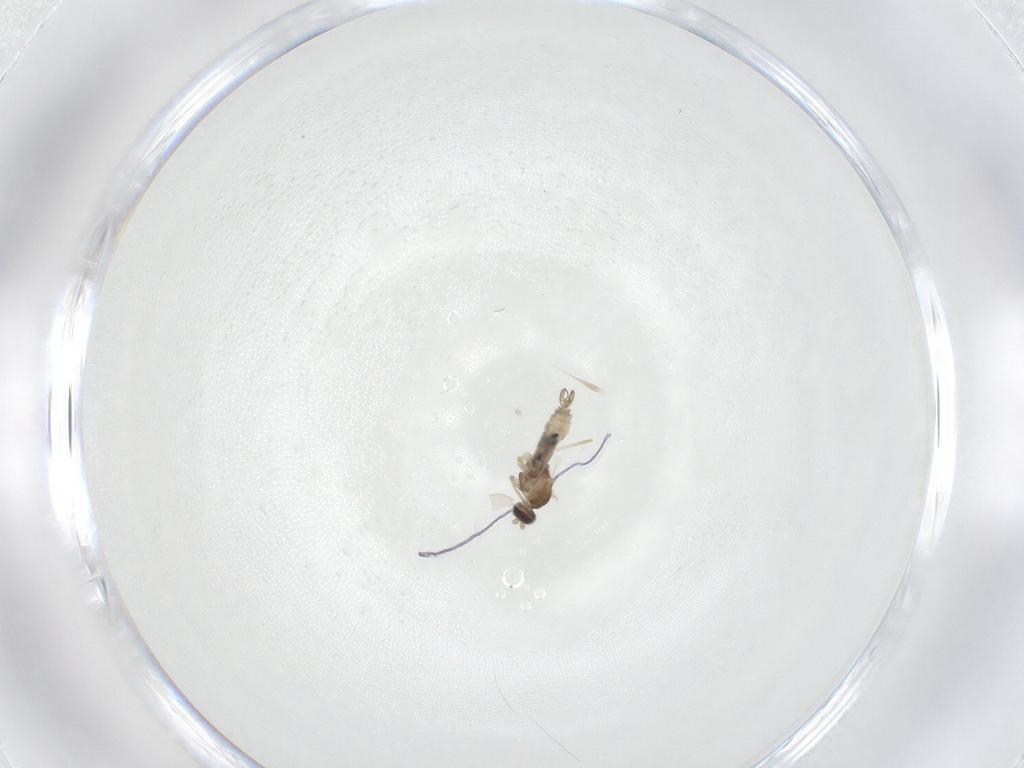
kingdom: Animalia
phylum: Arthropoda
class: Insecta
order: Diptera
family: Cecidomyiidae
